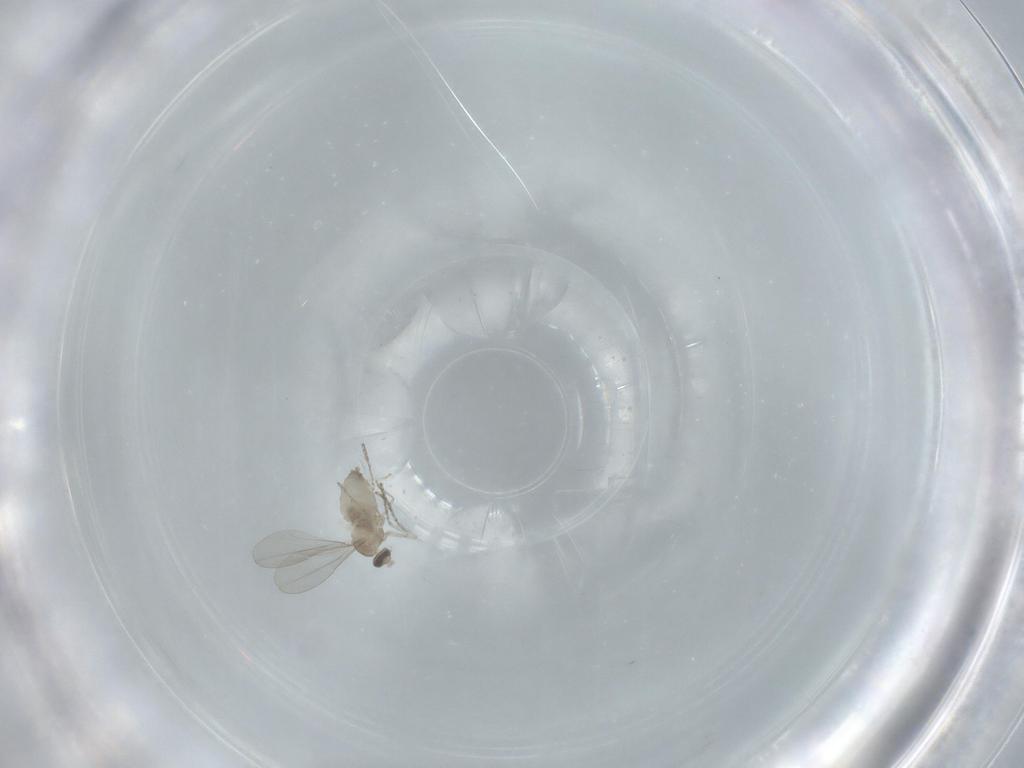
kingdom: Animalia
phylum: Arthropoda
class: Insecta
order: Diptera
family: Cecidomyiidae
